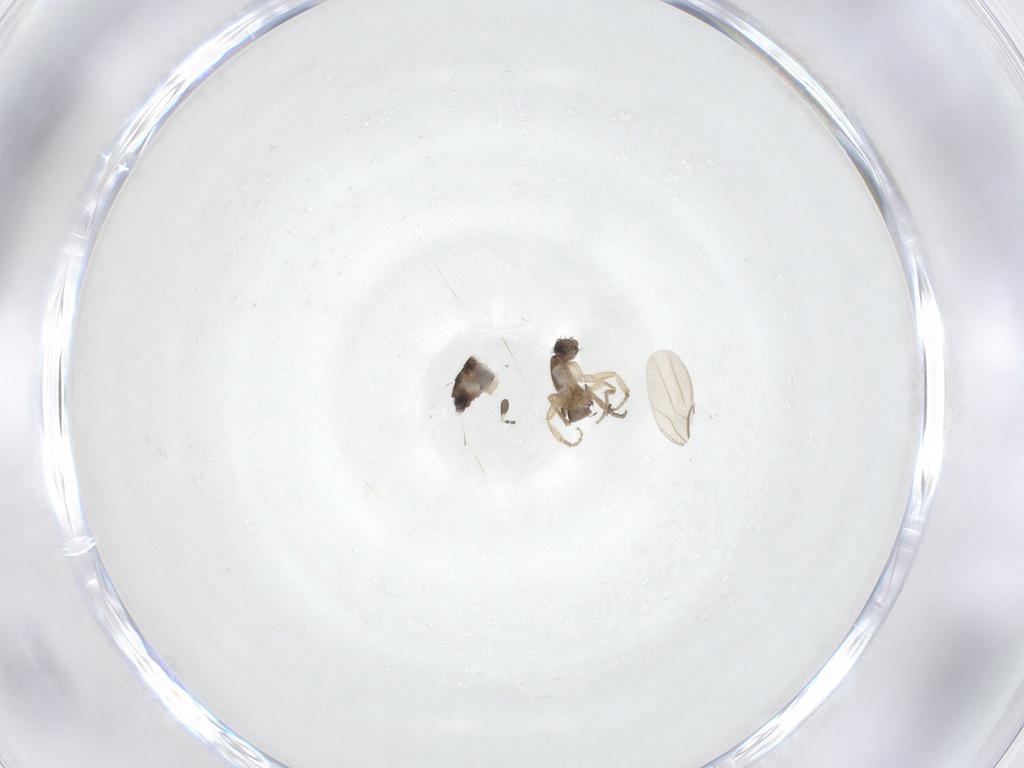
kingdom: Animalia
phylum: Arthropoda
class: Insecta
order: Diptera
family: Phoridae
